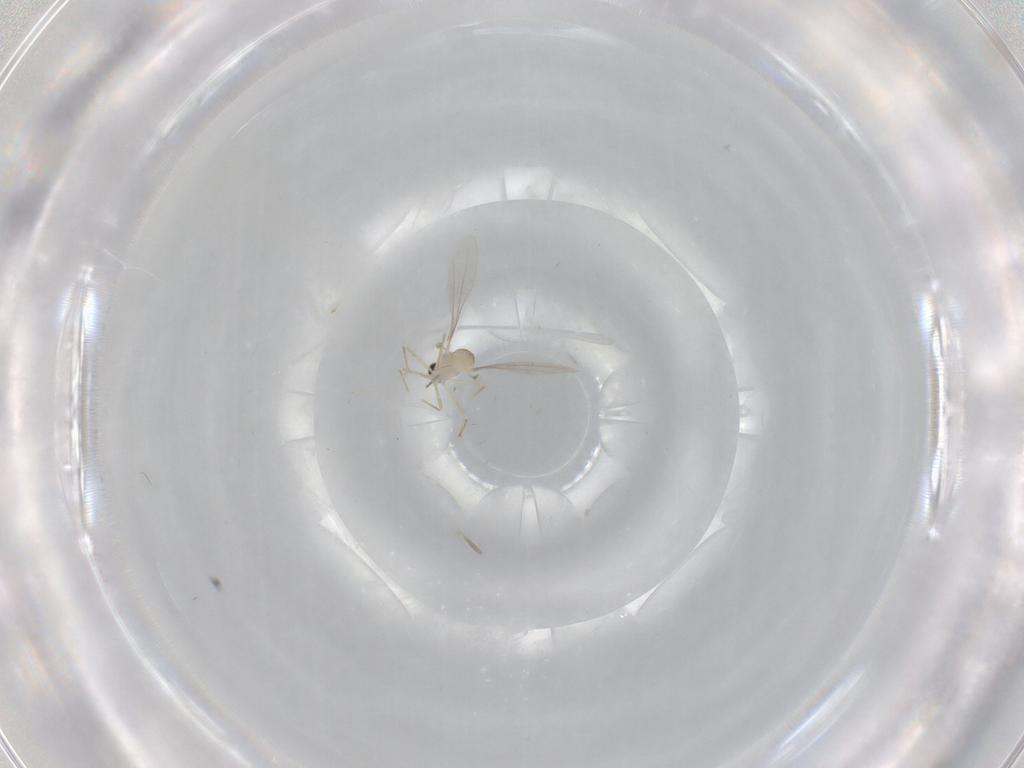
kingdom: Animalia
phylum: Arthropoda
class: Insecta
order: Diptera
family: Cecidomyiidae
